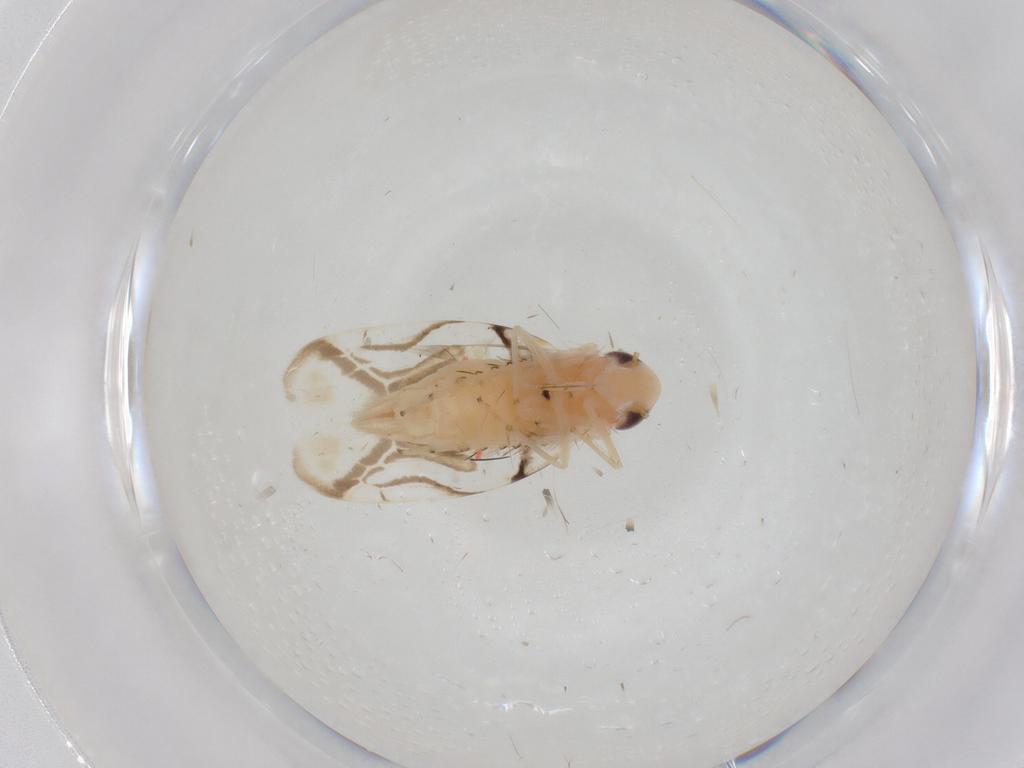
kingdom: Animalia
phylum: Arthropoda
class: Insecta
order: Hemiptera
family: Cicadellidae
